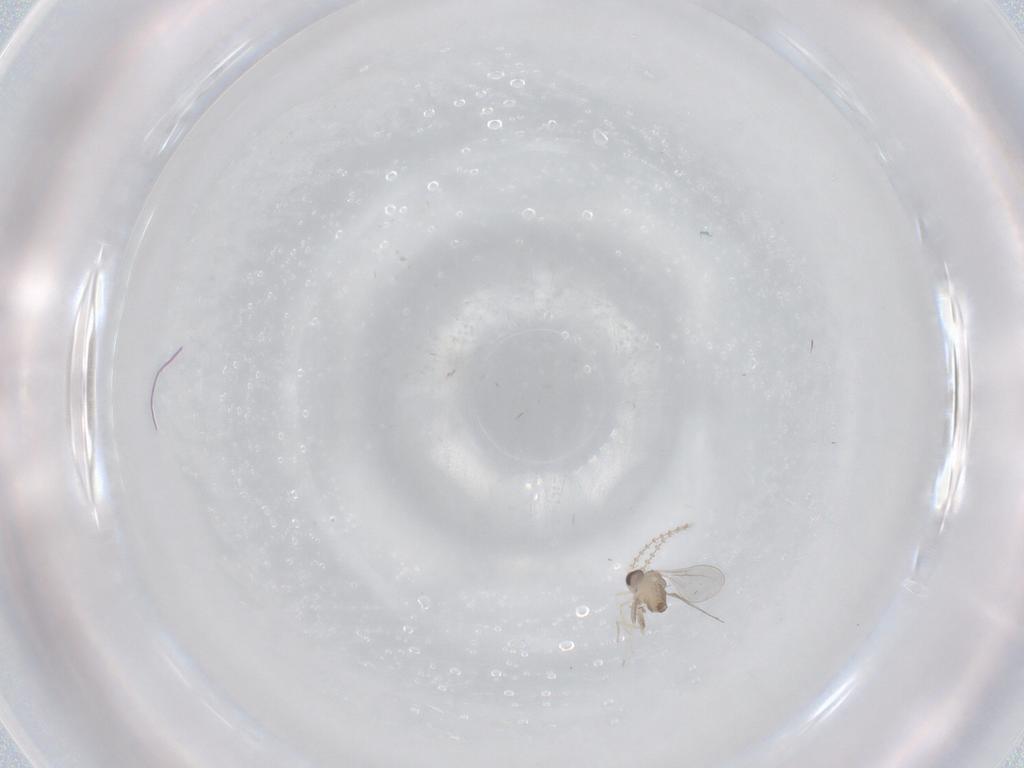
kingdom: Animalia
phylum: Arthropoda
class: Insecta
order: Diptera
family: Cecidomyiidae
